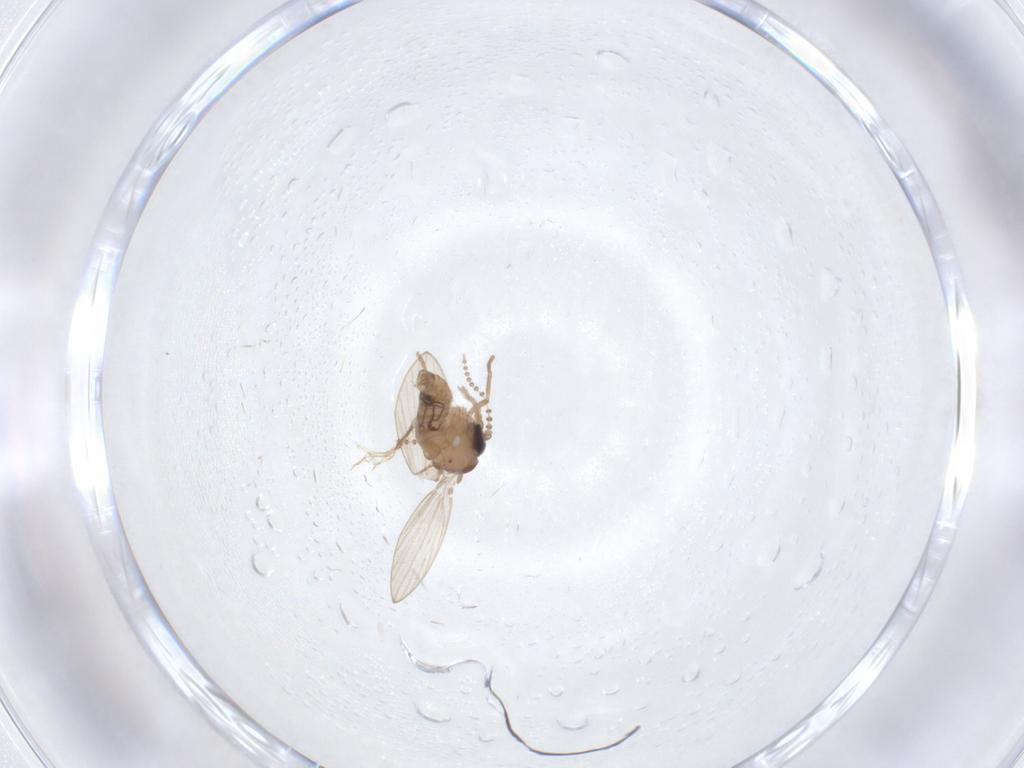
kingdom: Animalia
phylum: Arthropoda
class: Insecta
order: Diptera
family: Psychodidae
